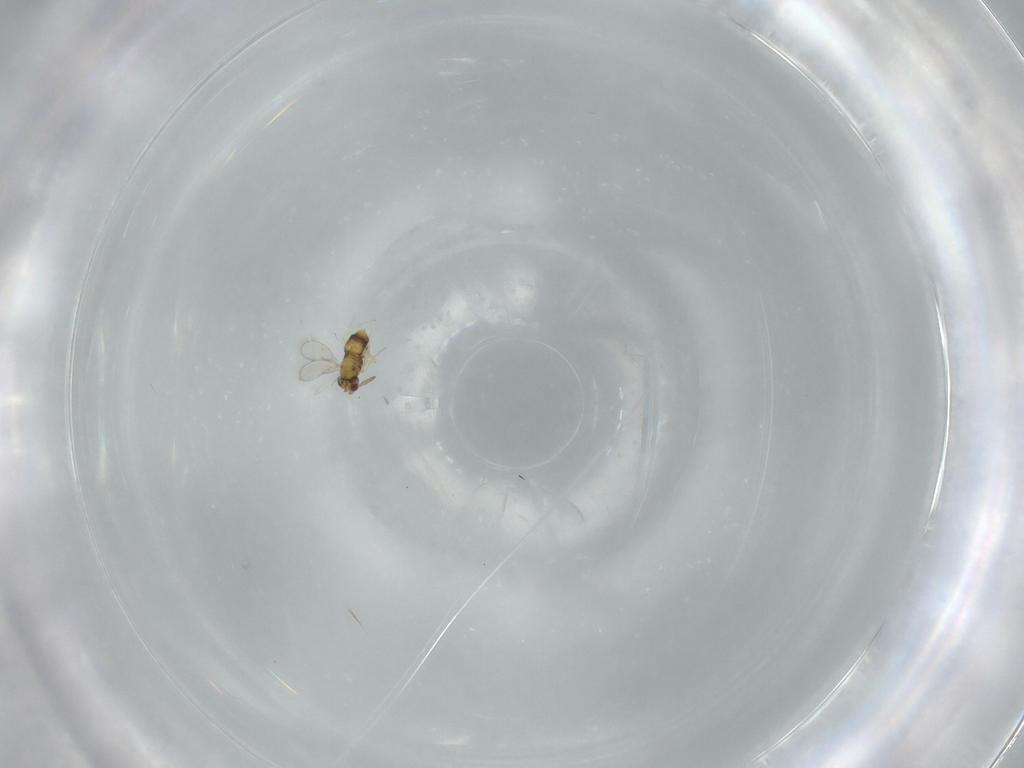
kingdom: Animalia
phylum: Arthropoda
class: Insecta
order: Hymenoptera
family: Aphelinidae
